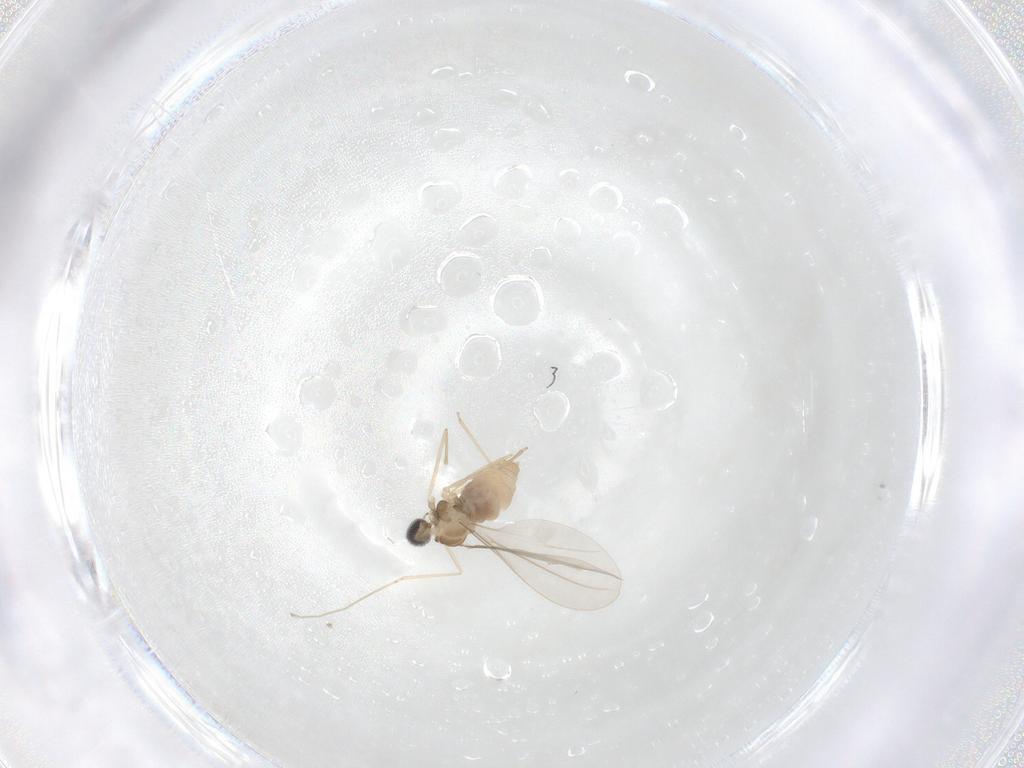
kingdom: Animalia
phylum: Arthropoda
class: Insecta
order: Diptera
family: Cecidomyiidae
